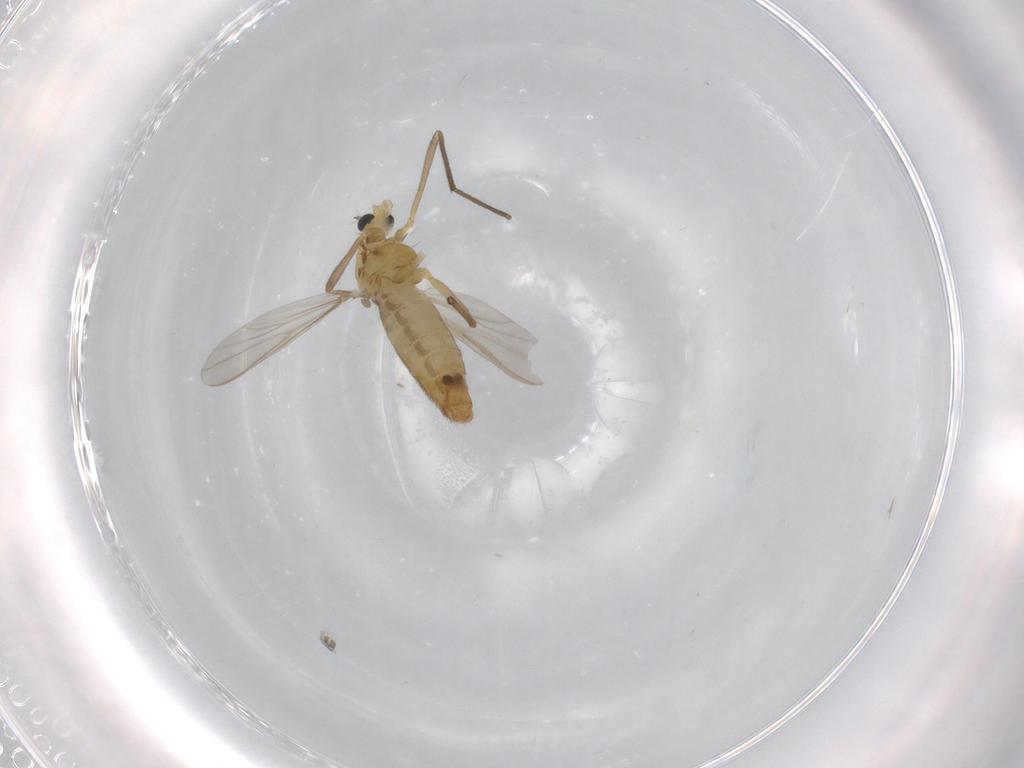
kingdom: Animalia
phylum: Arthropoda
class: Insecta
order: Diptera
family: Chironomidae
